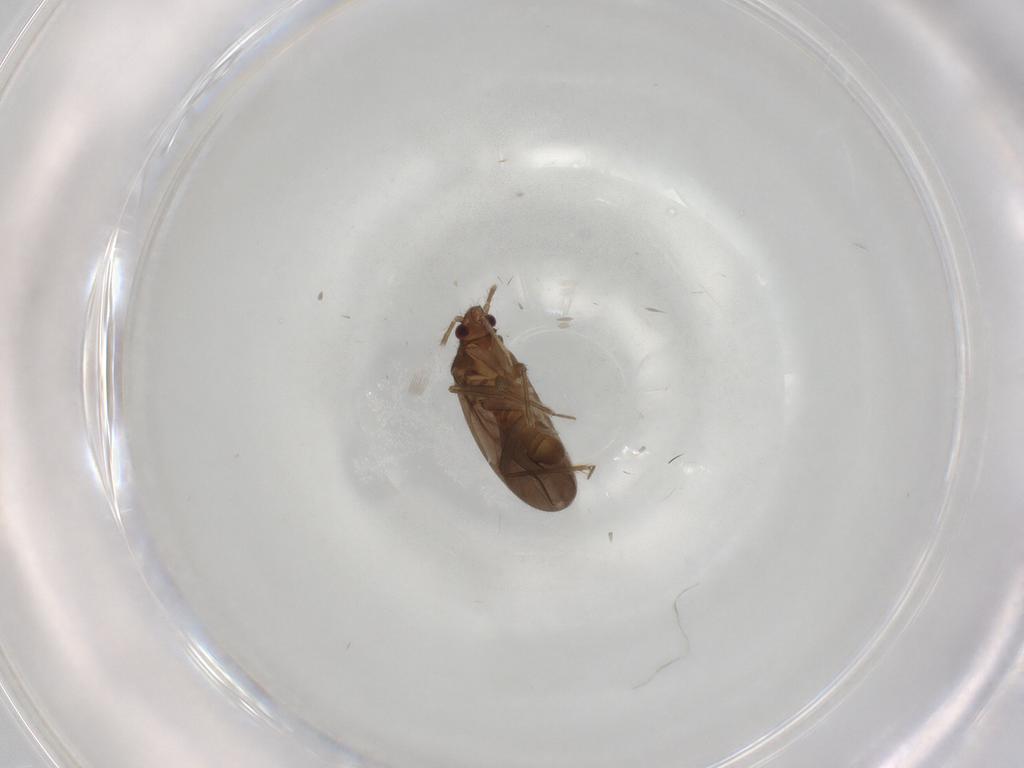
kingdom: Animalia
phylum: Arthropoda
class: Insecta
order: Hemiptera
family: Ceratocombidae
